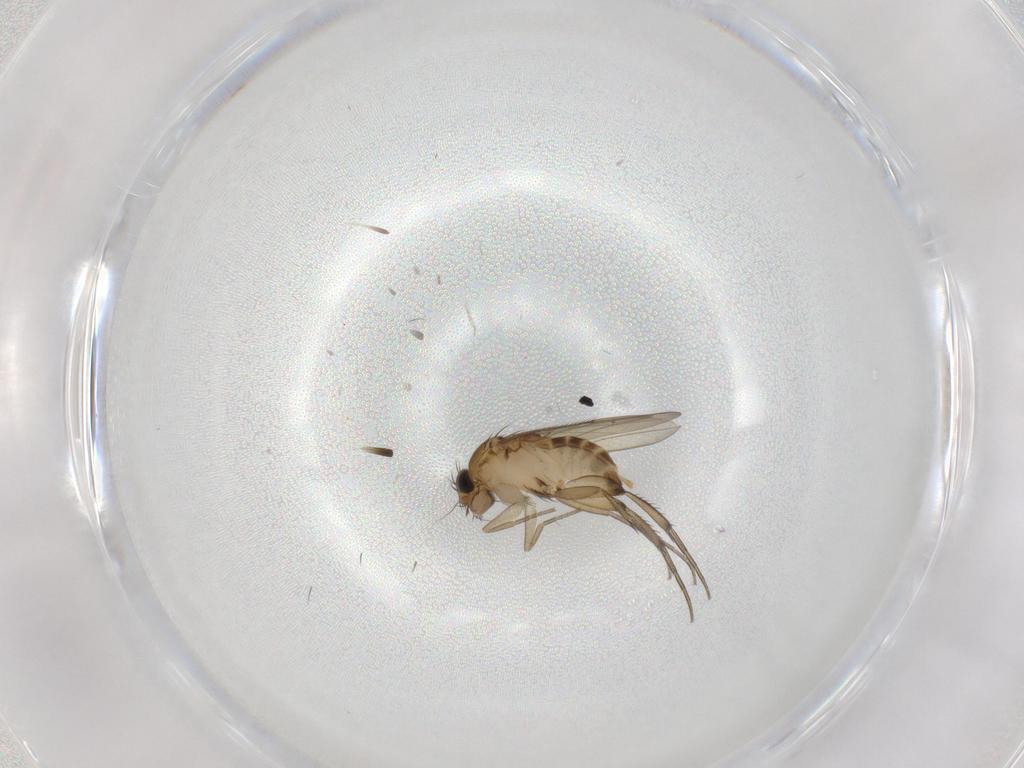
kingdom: Animalia
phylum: Arthropoda
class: Insecta
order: Diptera
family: Phoridae
